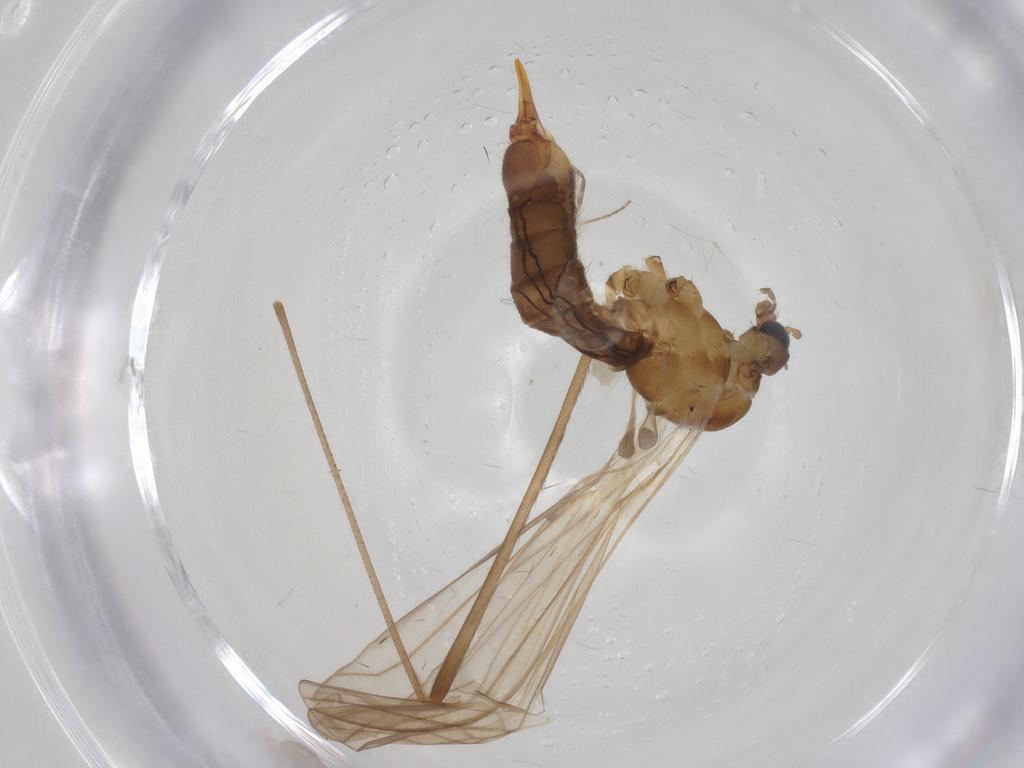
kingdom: Animalia
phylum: Arthropoda
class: Insecta
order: Diptera
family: Limoniidae
